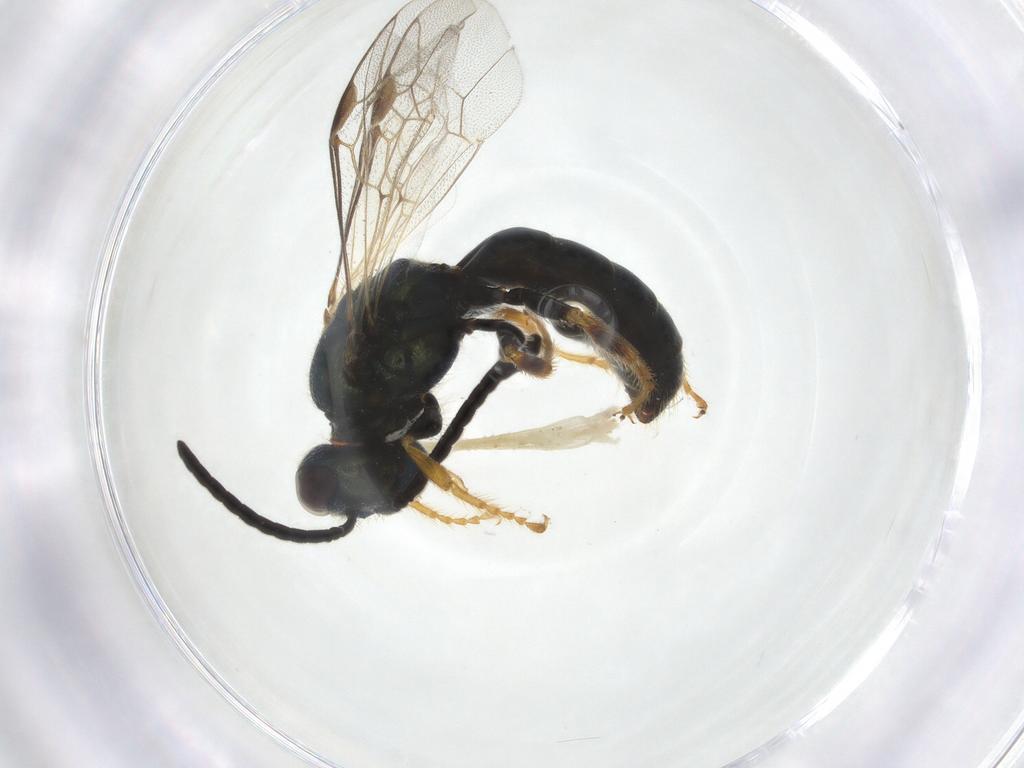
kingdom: Animalia
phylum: Arthropoda
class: Insecta
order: Hymenoptera
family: Halictidae
